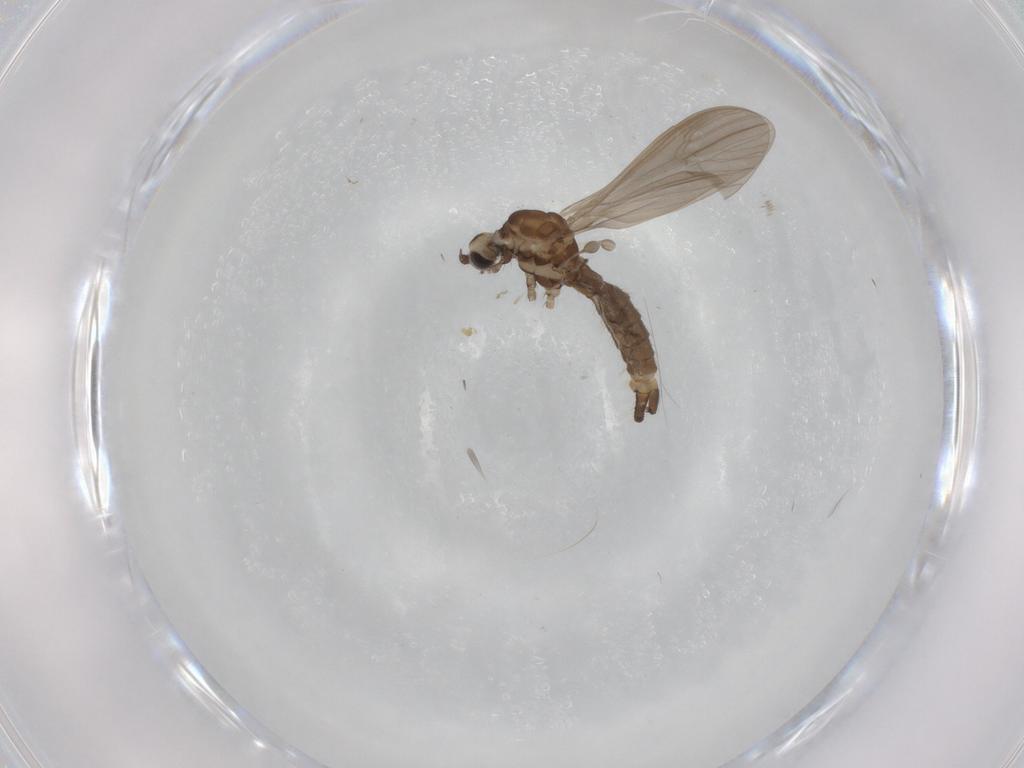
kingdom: Animalia
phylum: Arthropoda
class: Insecta
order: Diptera
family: Limoniidae
